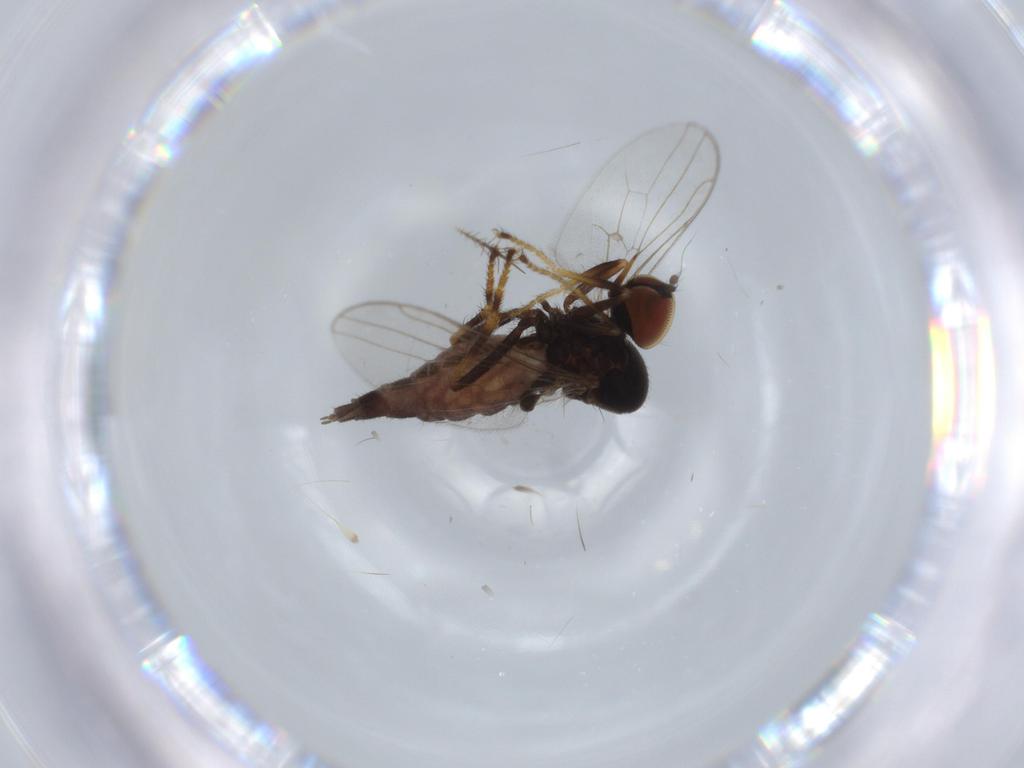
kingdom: Animalia
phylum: Arthropoda
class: Insecta
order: Diptera
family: Hybotidae
